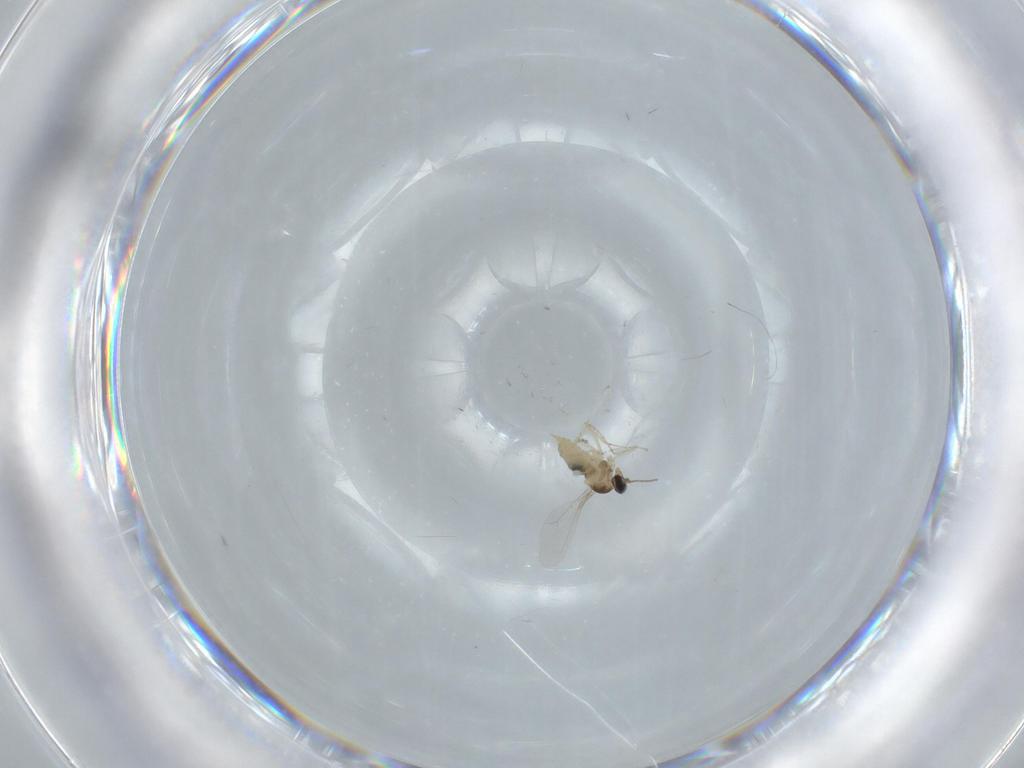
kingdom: Animalia
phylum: Arthropoda
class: Insecta
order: Diptera
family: Cecidomyiidae
